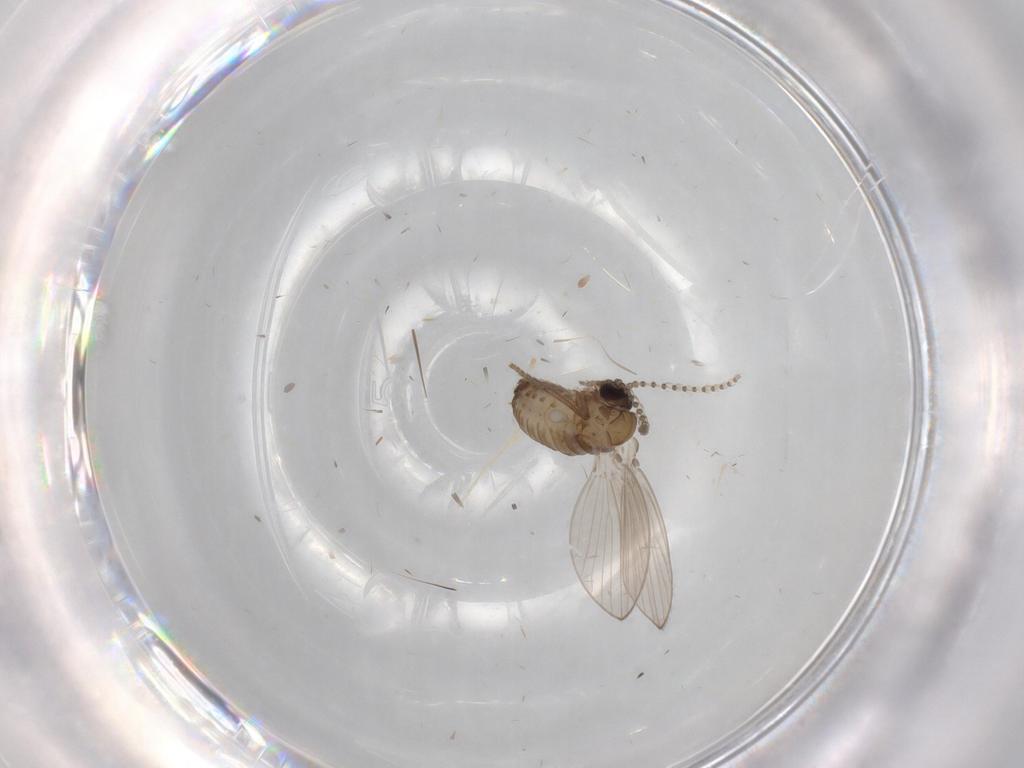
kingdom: Animalia
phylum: Arthropoda
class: Insecta
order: Diptera
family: Psychodidae
